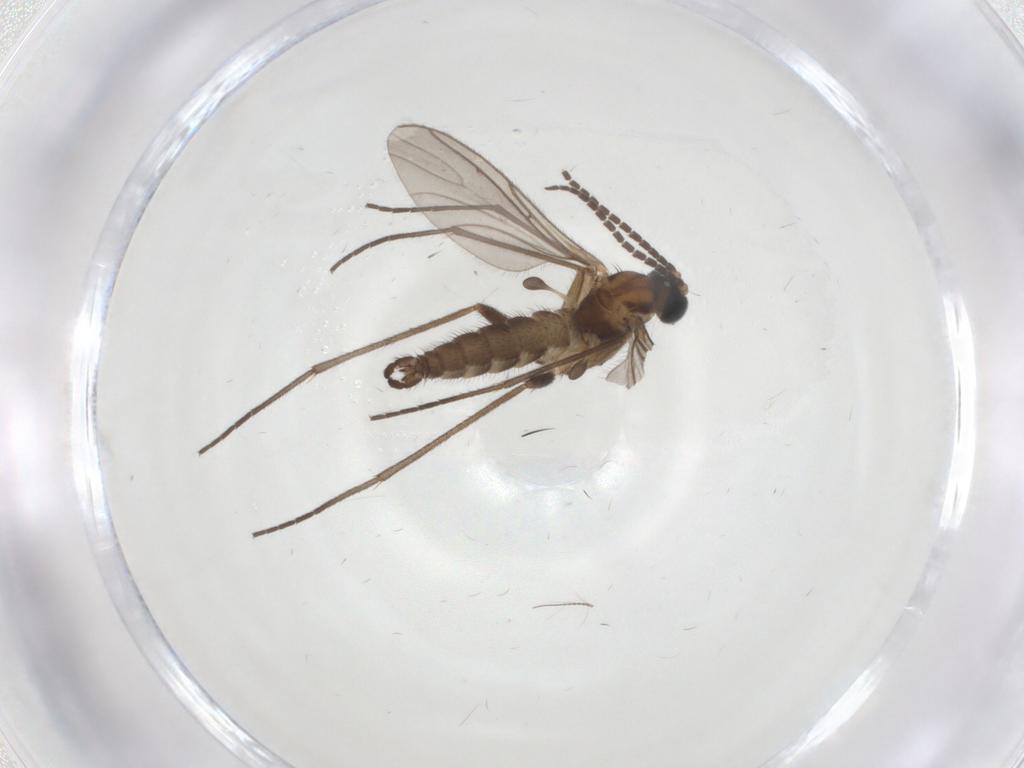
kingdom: Animalia
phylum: Arthropoda
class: Insecta
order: Diptera
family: Sciaridae
